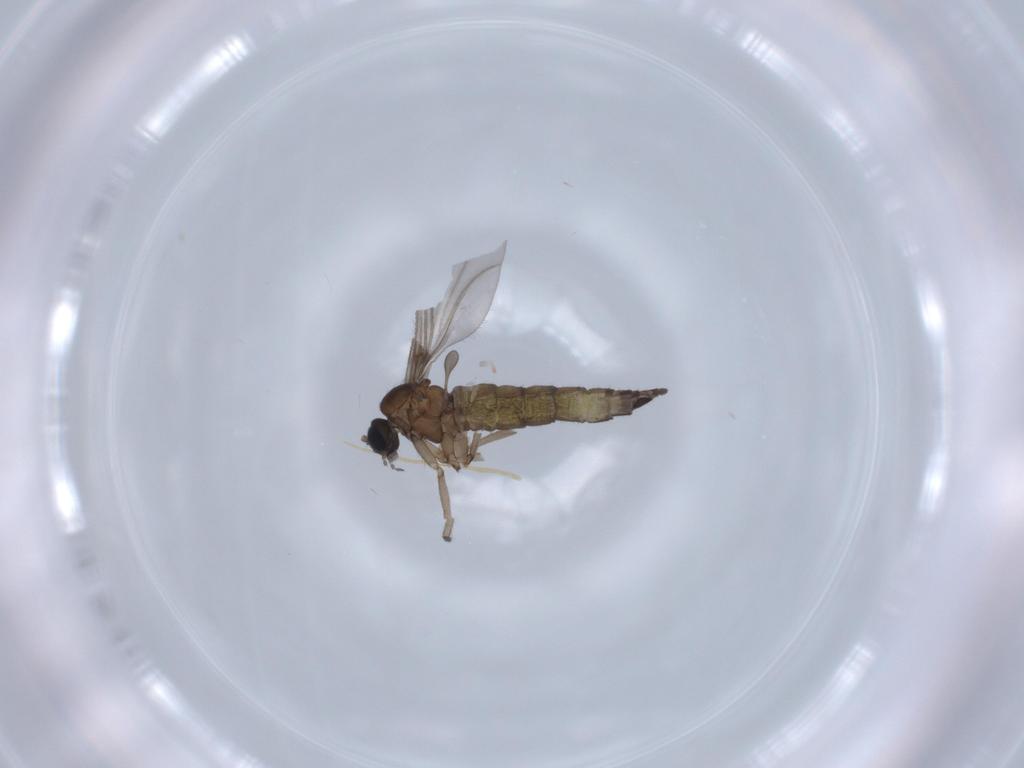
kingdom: Animalia
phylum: Arthropoda
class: Insecta
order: Diptera
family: Sciaridae
